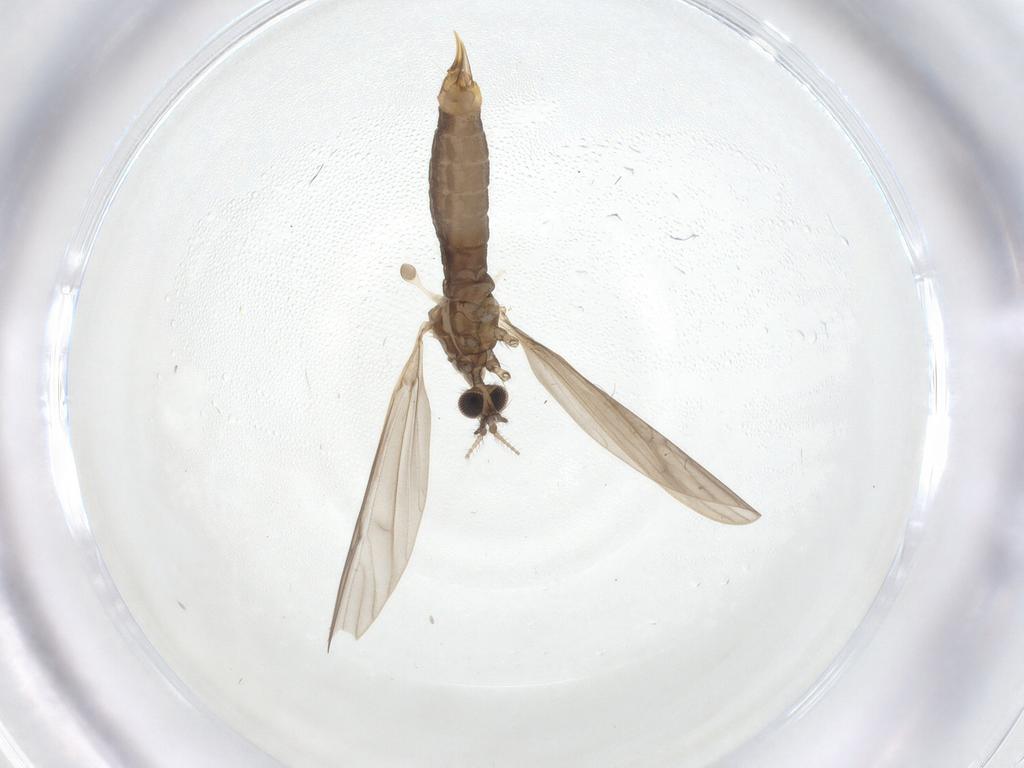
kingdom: Animalia
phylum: Arthropoda
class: Insecta
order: Diptera
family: Limoniidae
